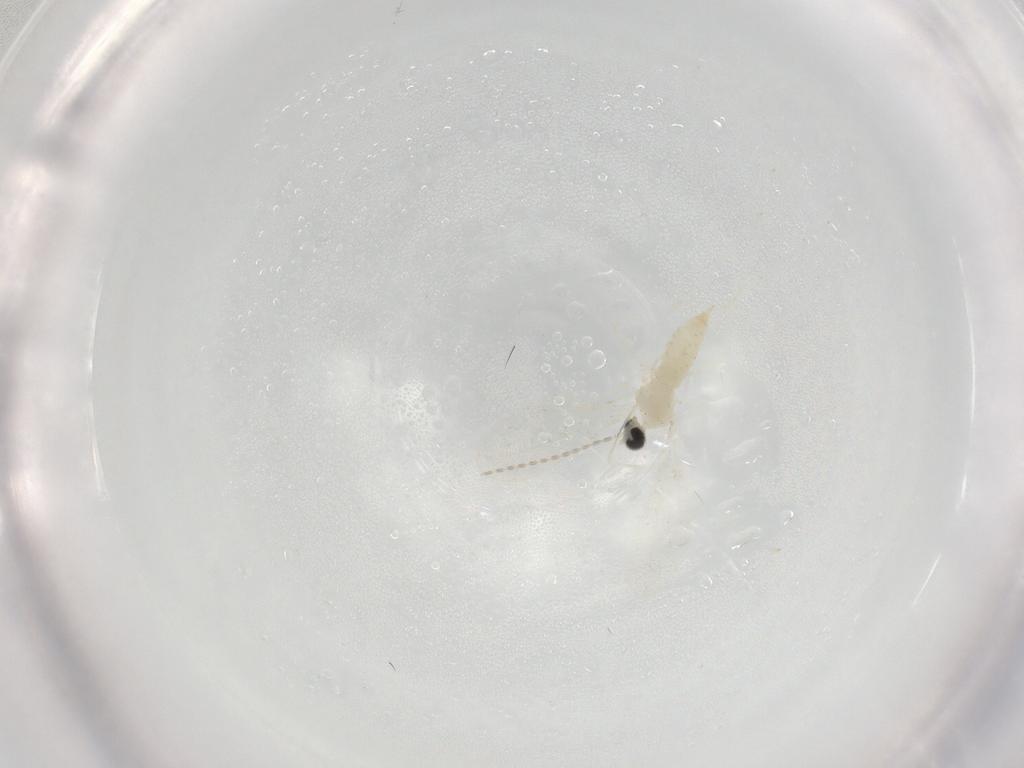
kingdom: Animalia
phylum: Arthropoda
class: Insecta
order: Diptera
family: Cecidomyiidae
